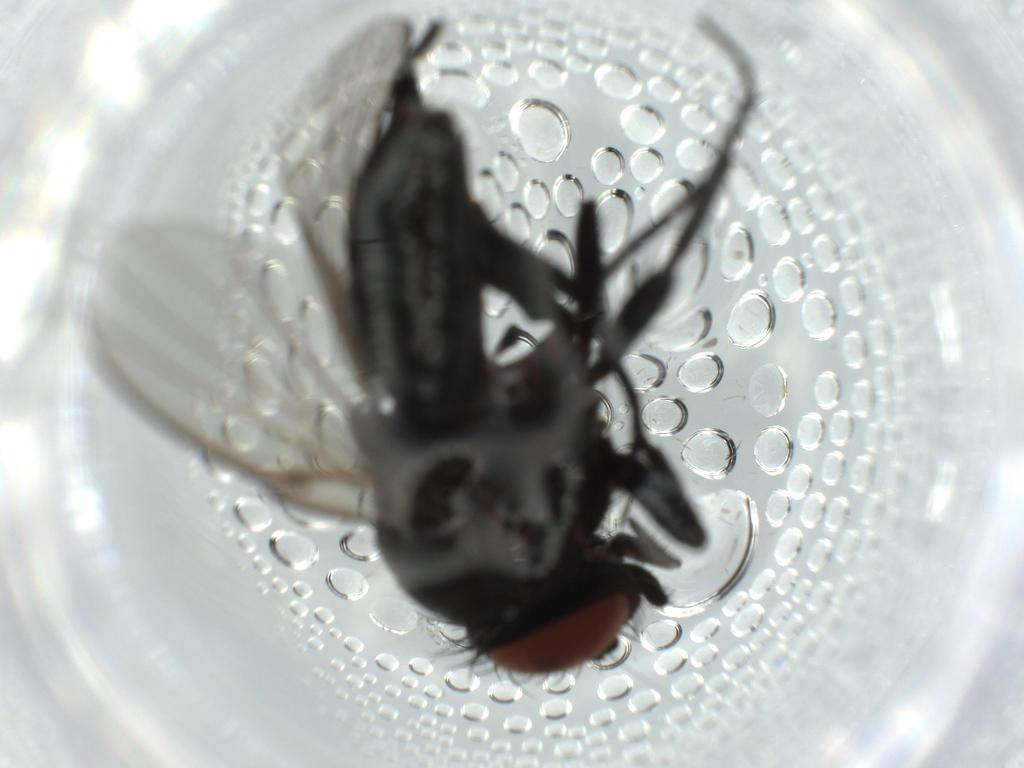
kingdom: Animalia
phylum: Arthropoda
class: Insecta
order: Diptera
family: Milichiidae
